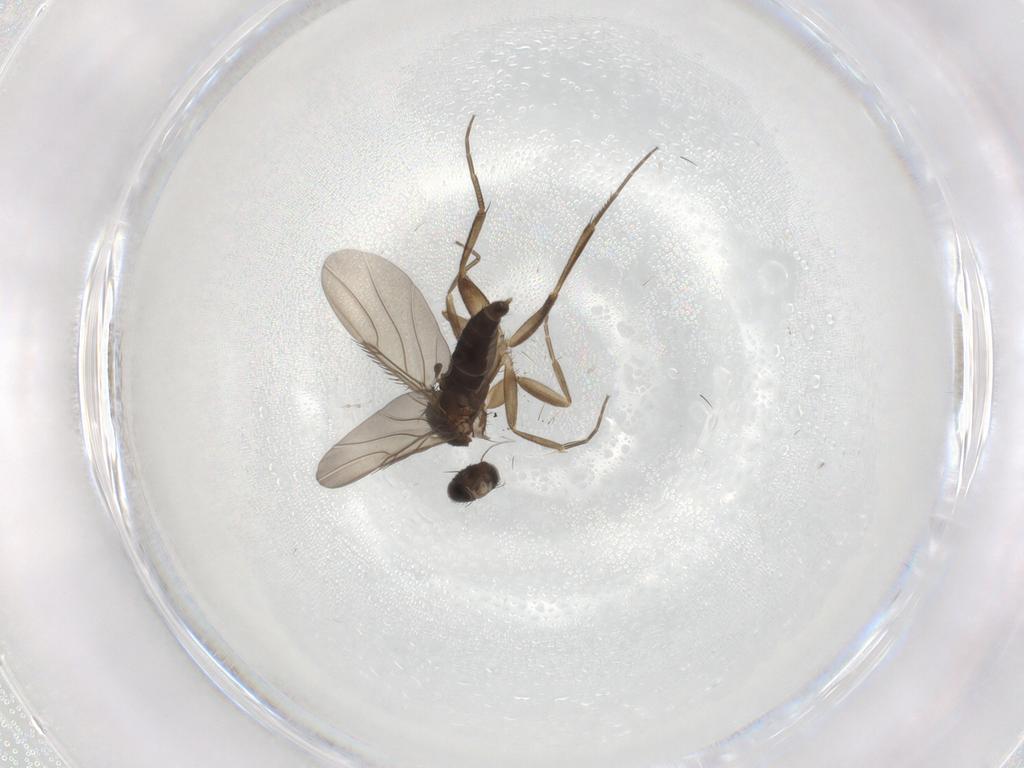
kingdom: Animalia
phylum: Arthropoda
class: Insecta
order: Diptera
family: Phoridae
